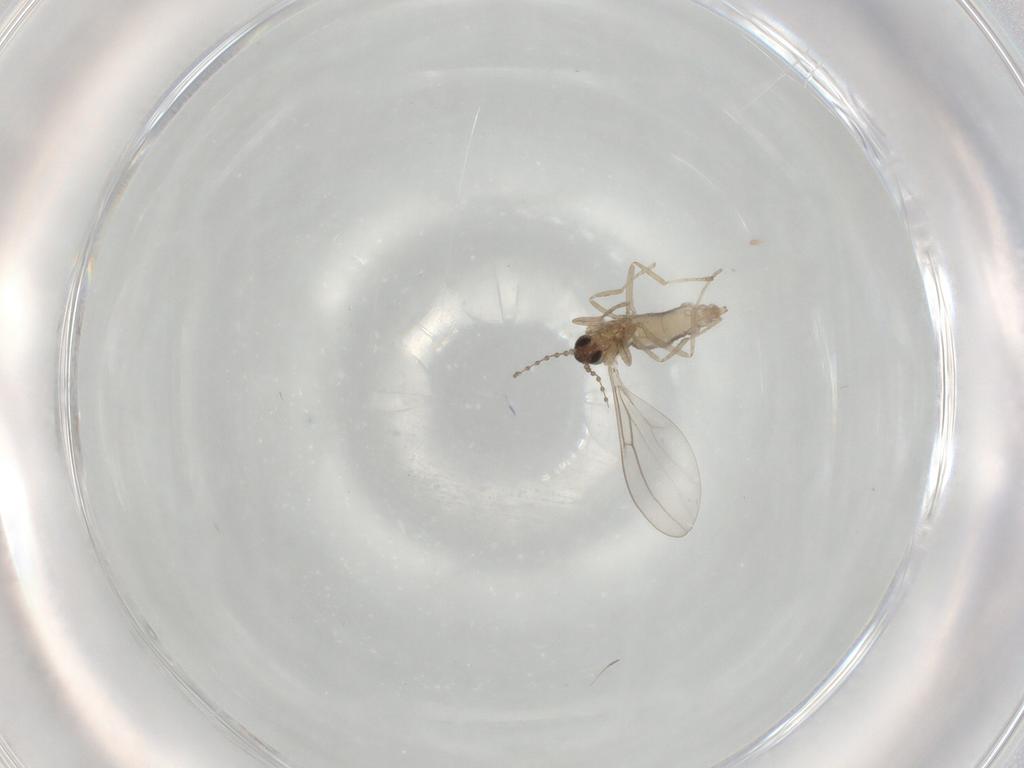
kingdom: Animalia
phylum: Arthropoda
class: Insecta
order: Diptera
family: Cecidomyiidae
